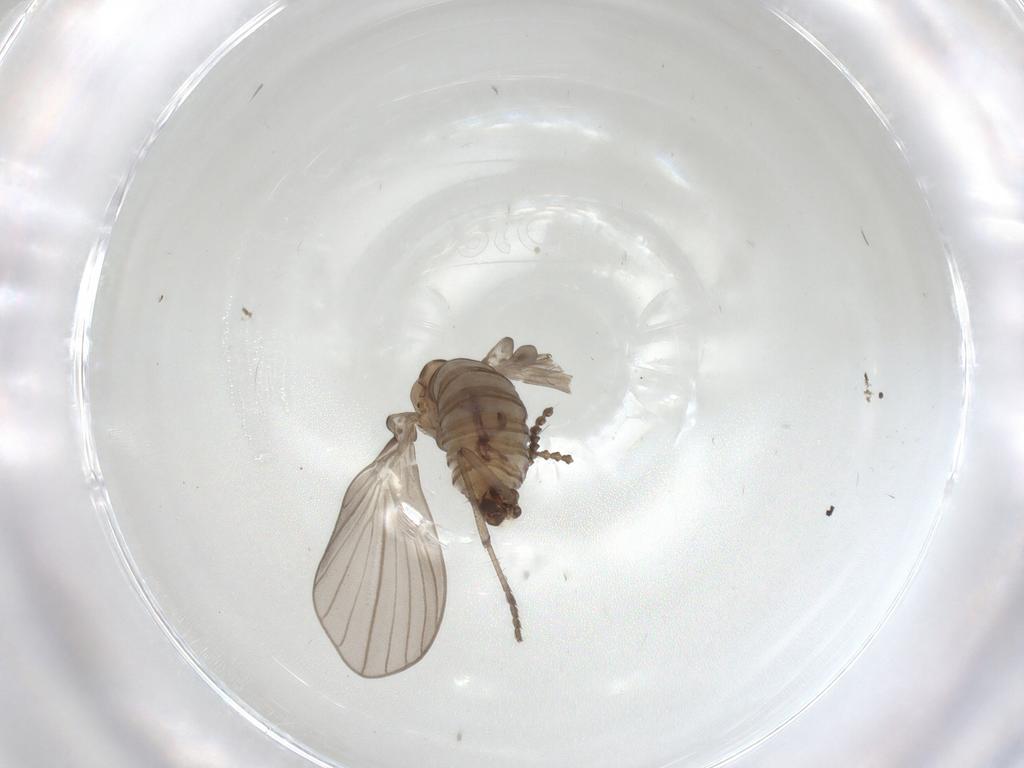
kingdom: Animalia
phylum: Arthropoda
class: Insecta
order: Diptera
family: Psychodidae
